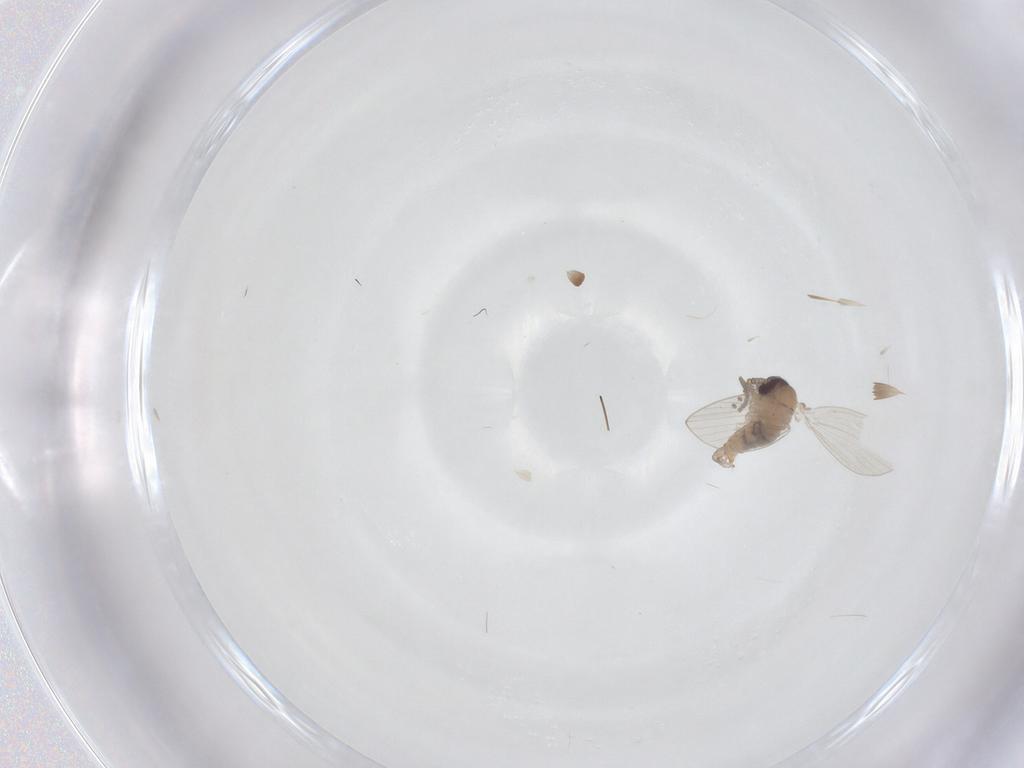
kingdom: Animalia
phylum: Arthropoda
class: Insecta
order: Diptera
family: Psychodidae
